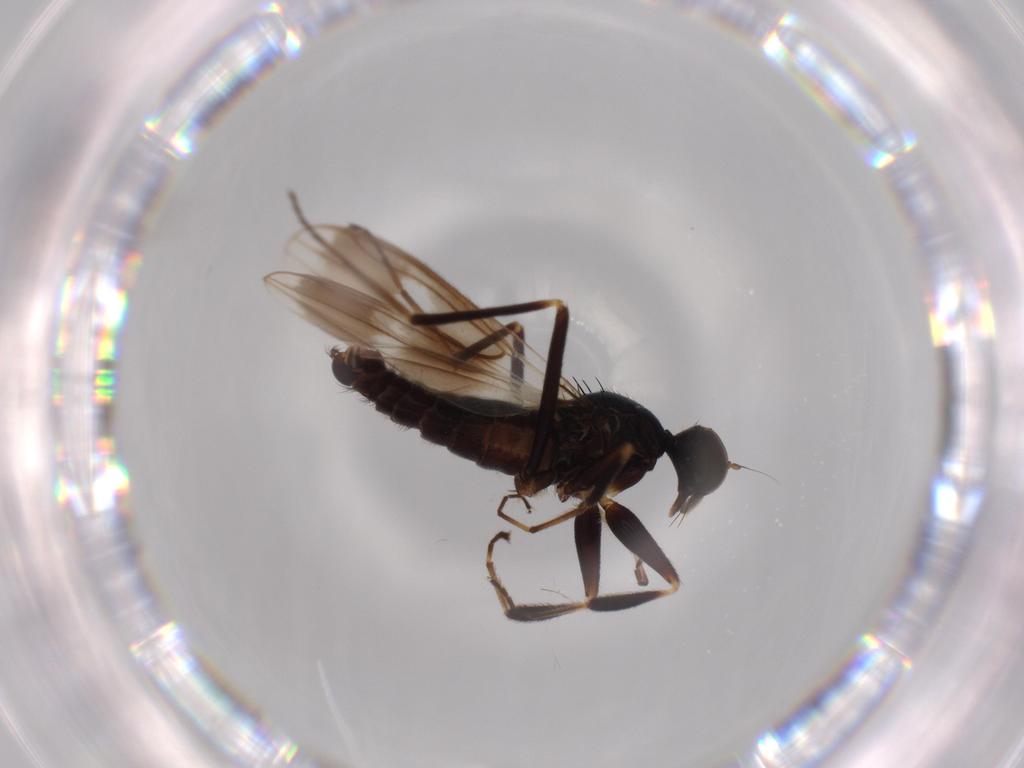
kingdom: Animalia
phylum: Arthropoda
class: Insecta
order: Diptera
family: Hybotidae
